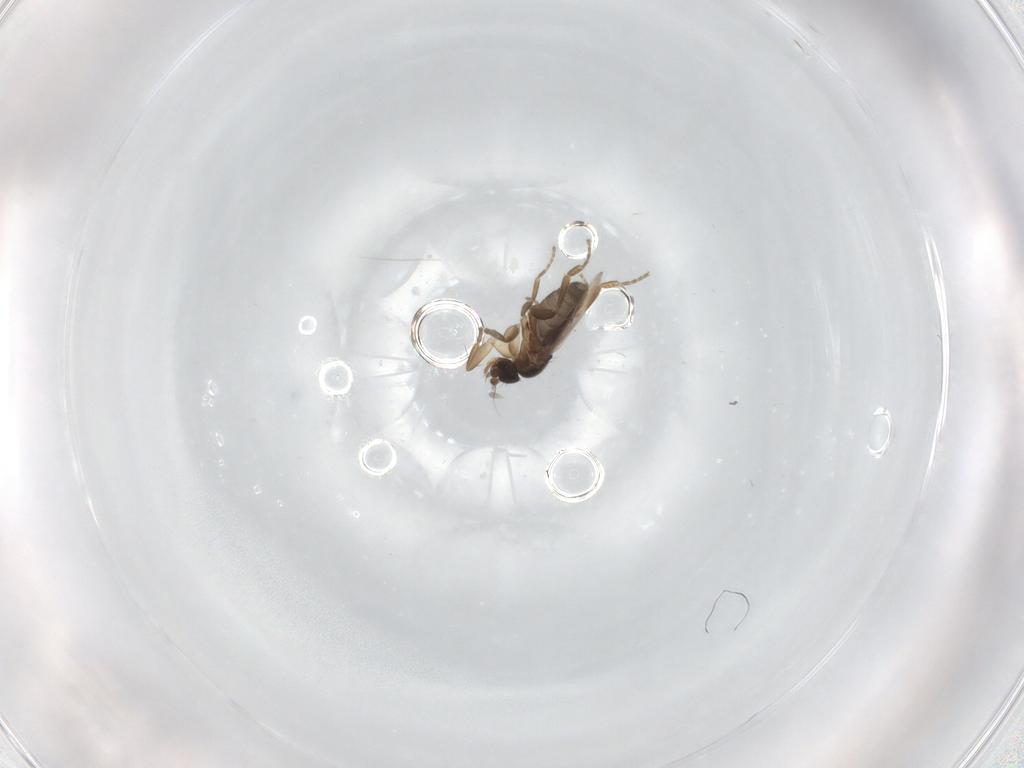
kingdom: Animalia
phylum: Arthropoda
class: Insecta
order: Diptera
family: Phoridae
